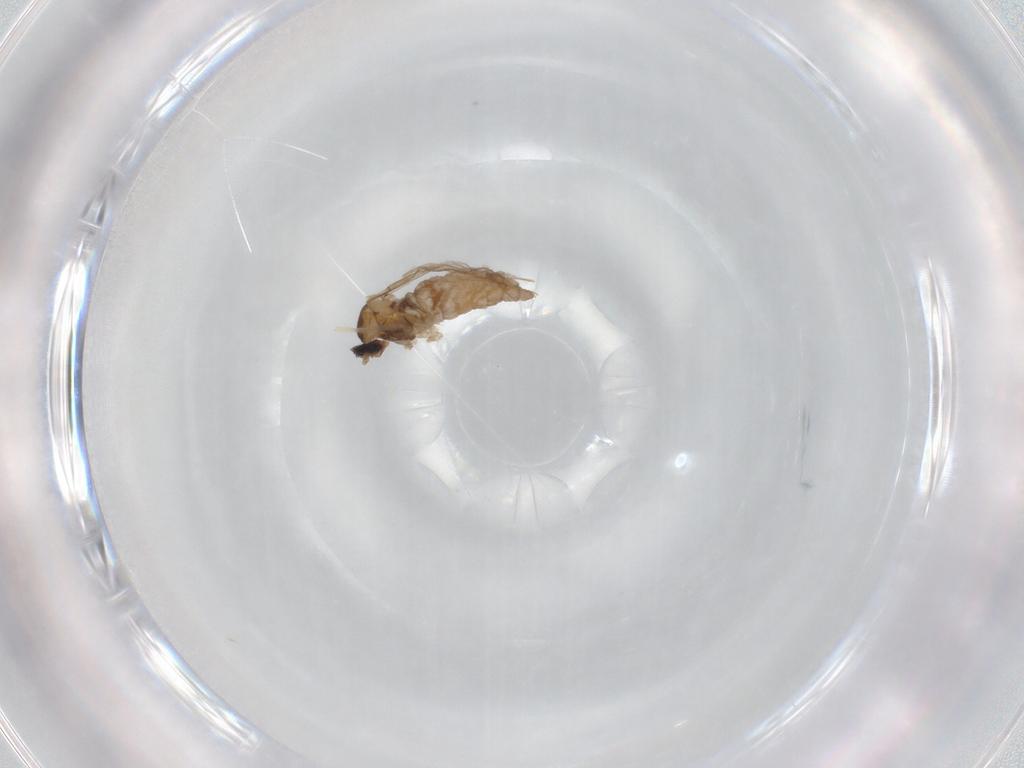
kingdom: Animalia
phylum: Arthropoda
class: Insecta
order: Diptera
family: Cecidomyiidae
